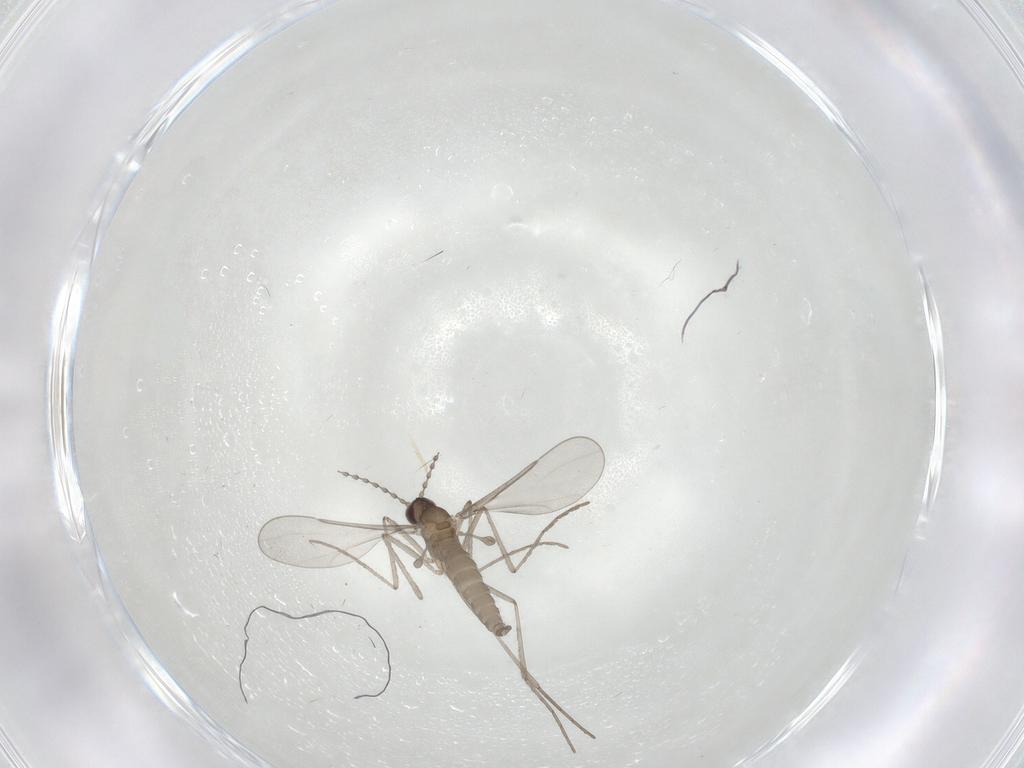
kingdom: Animalia
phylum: Arthropoda
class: Insecta
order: Diptera
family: Cecidomyiidae
